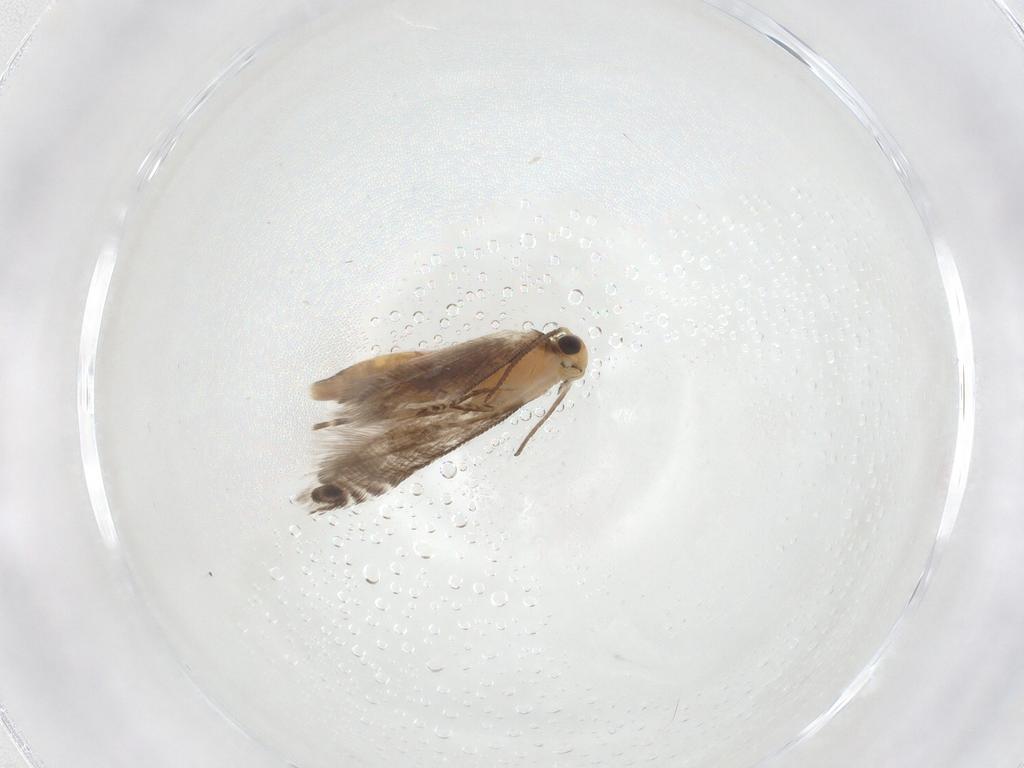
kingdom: Animalia
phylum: Arthropoda
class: Insecta
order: Lepidoptera
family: Glyphipterigidae
